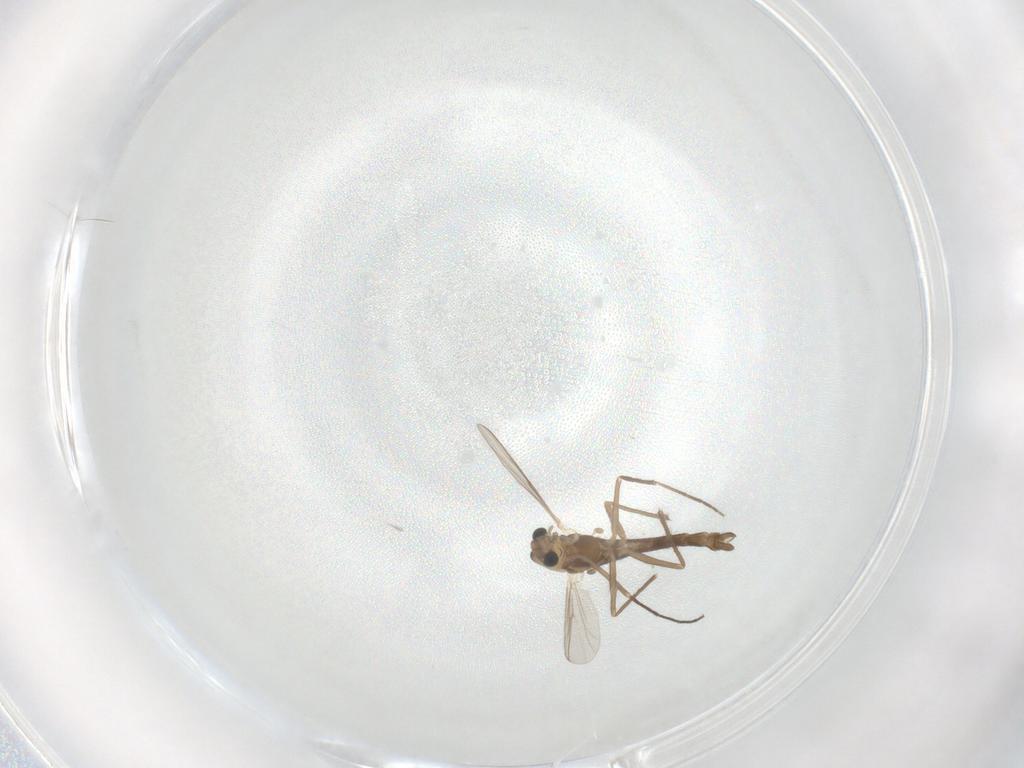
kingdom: Animalia
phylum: Arthropoda
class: Insecta
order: Diptera
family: Chironomidae
